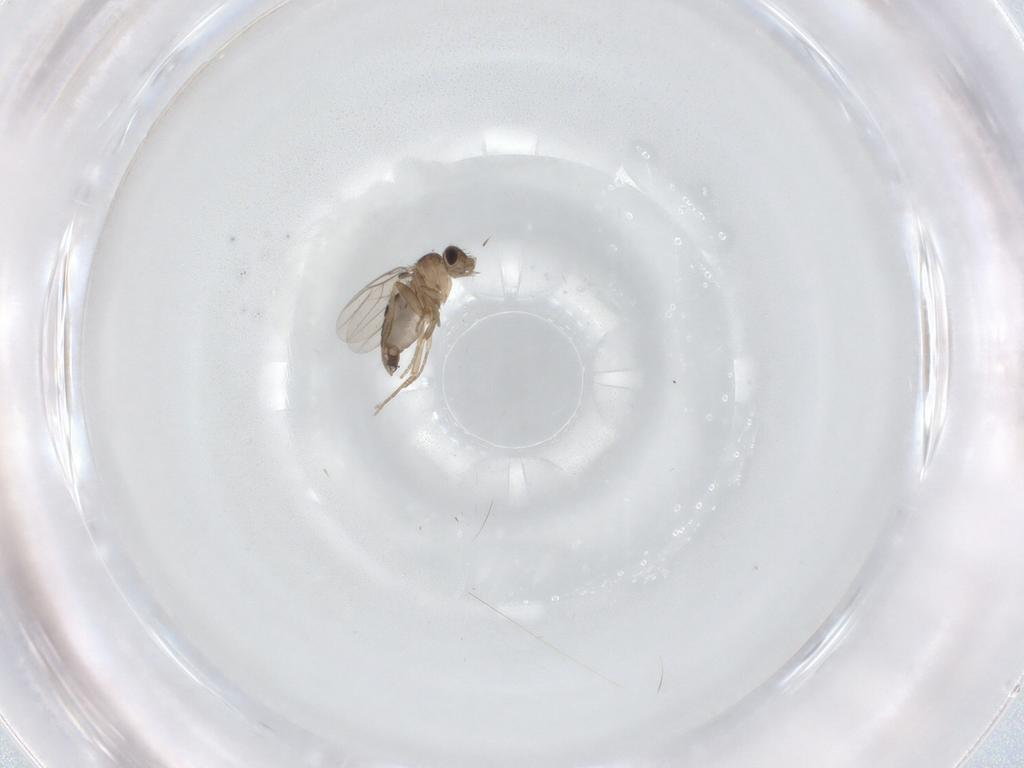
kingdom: Animalia
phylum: Arthropoda
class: Insecta
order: Diptera
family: Phoridae
